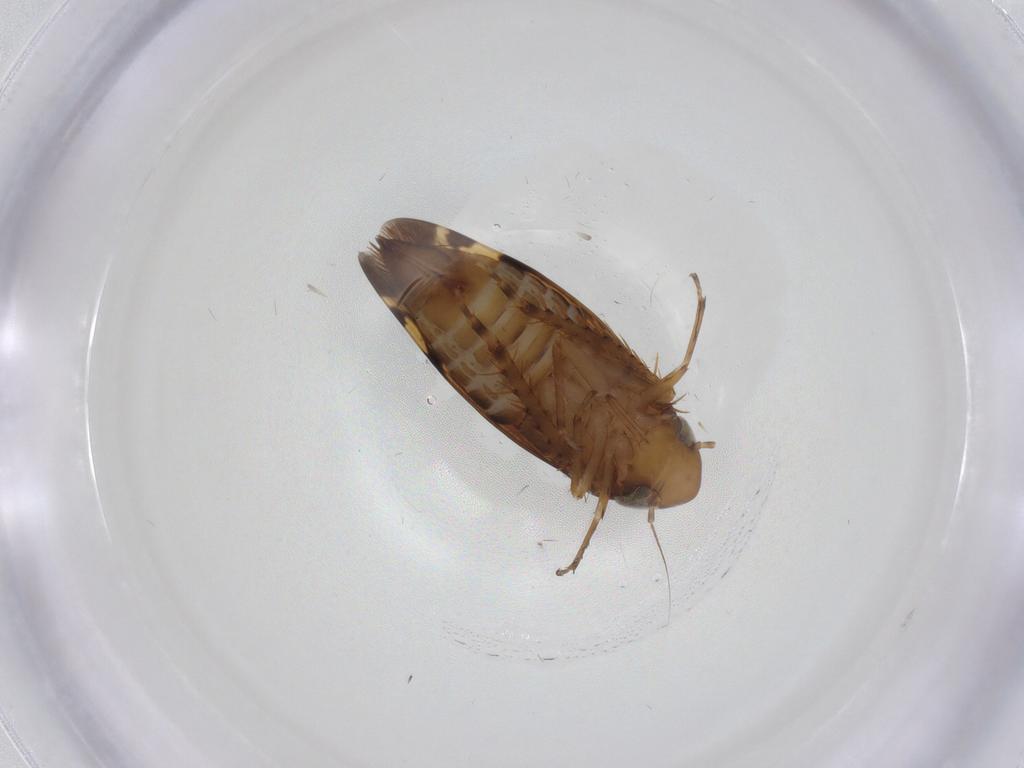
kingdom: Animalia
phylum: Arthropoda
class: Insecta
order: Hemiptera
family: Cicadellidae
